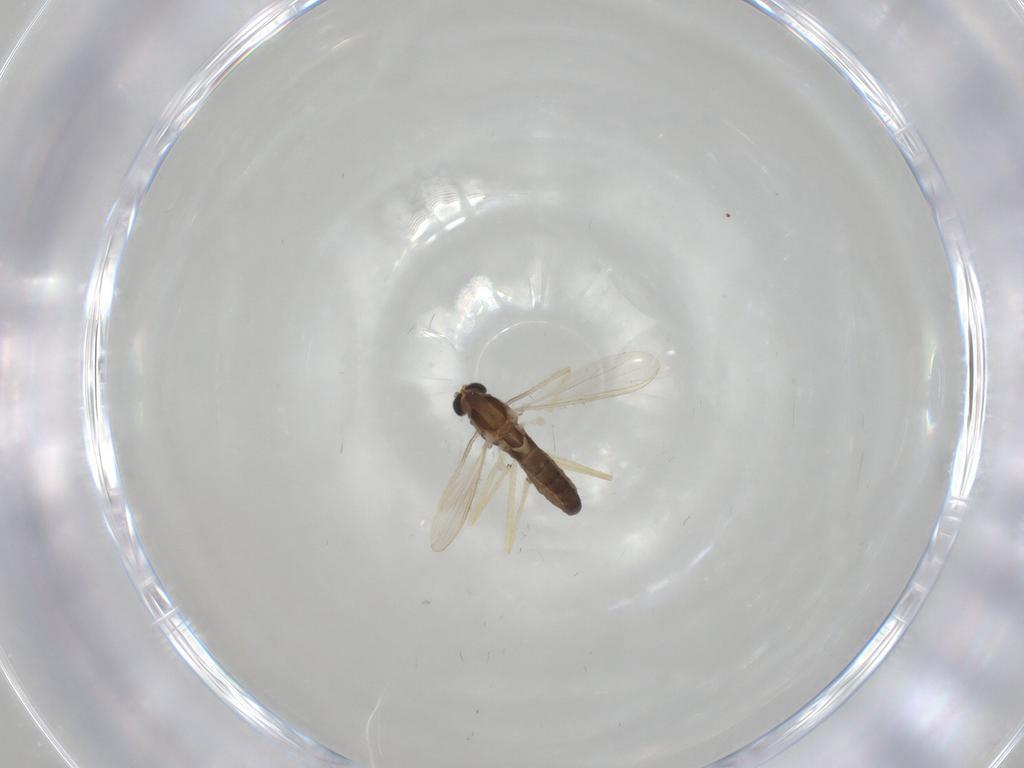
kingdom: Animalia
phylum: Arthropoda
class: Insecta
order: Diptera
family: Chironomidae
